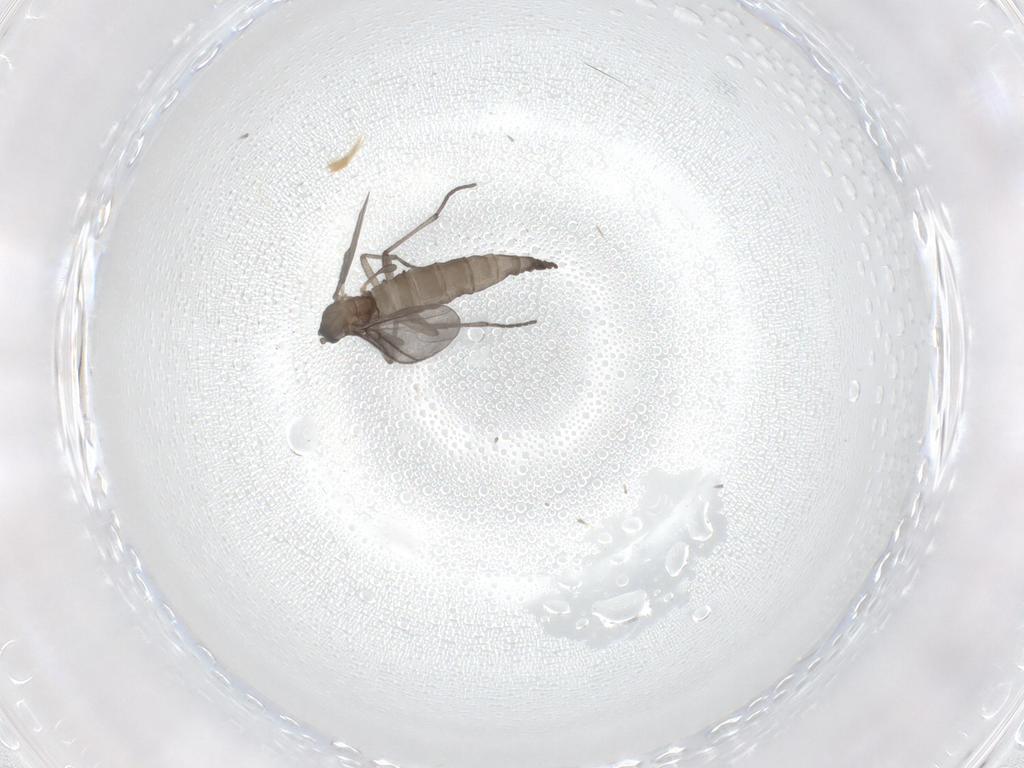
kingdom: Animalia
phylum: Arthropoda
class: Insecta
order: Diptera
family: Sciaridae
